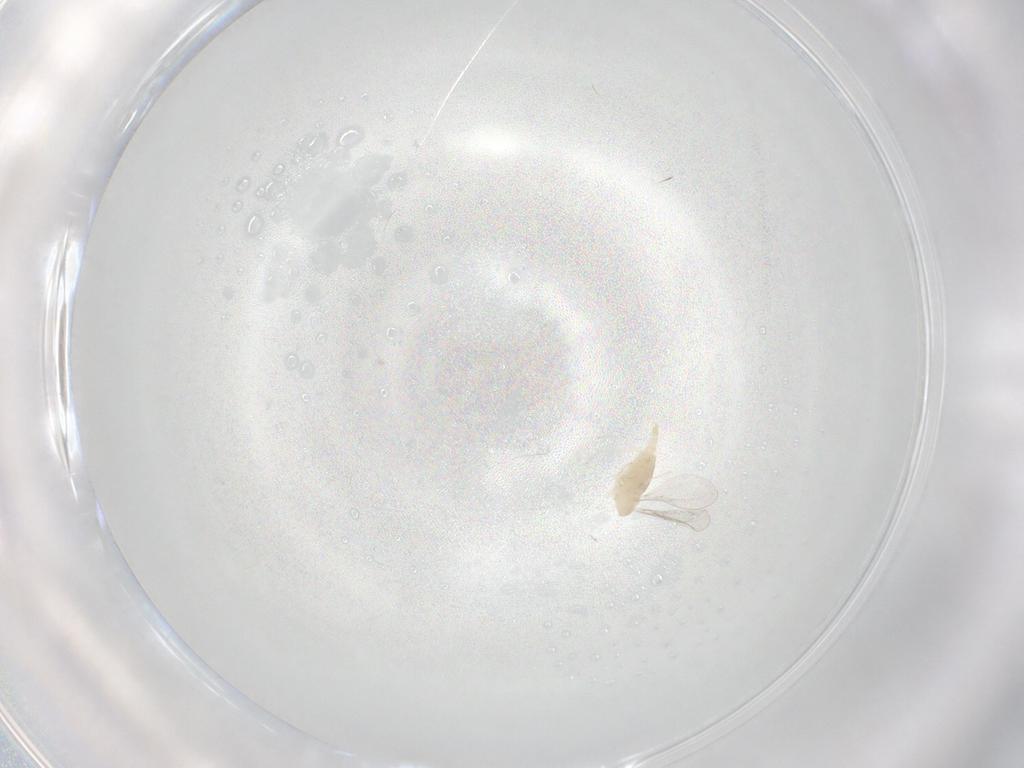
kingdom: Animalia
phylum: Arthropoda
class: Insecta
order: Diptera
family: Cecidomyiidae
